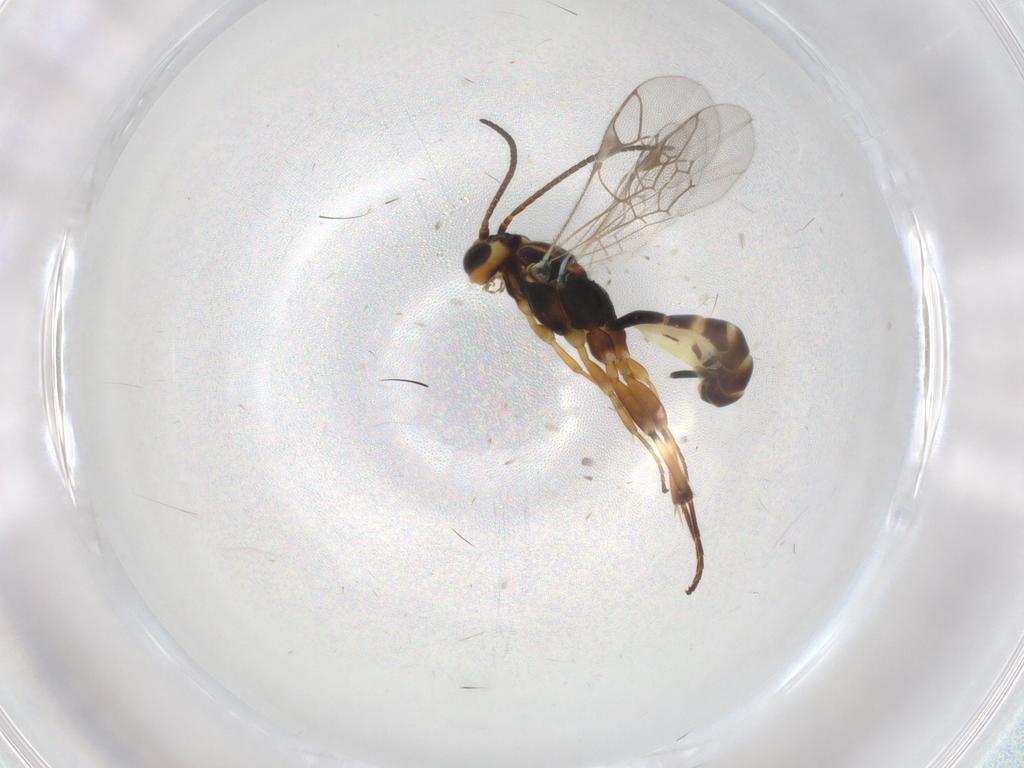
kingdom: Animalia
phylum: Arthropoda
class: Insecta
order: Hymenoptera
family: Ichneumonidae
